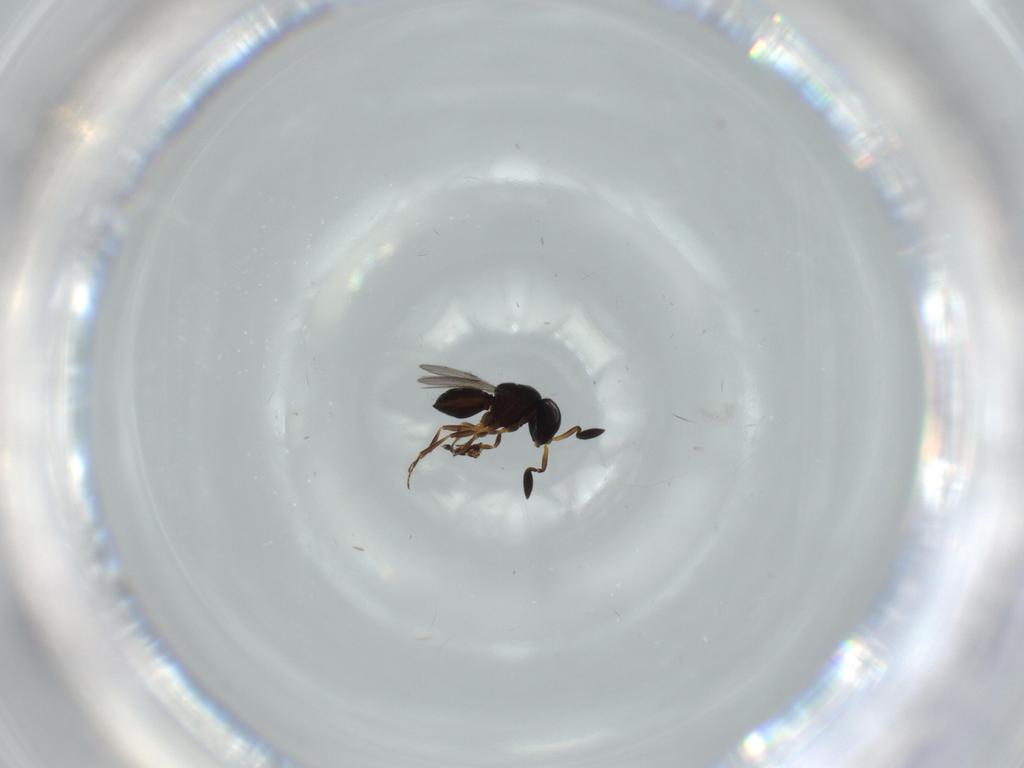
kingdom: Animalia
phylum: Arthropoda
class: Insecta
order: Hymenoptera
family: Scelionidae
